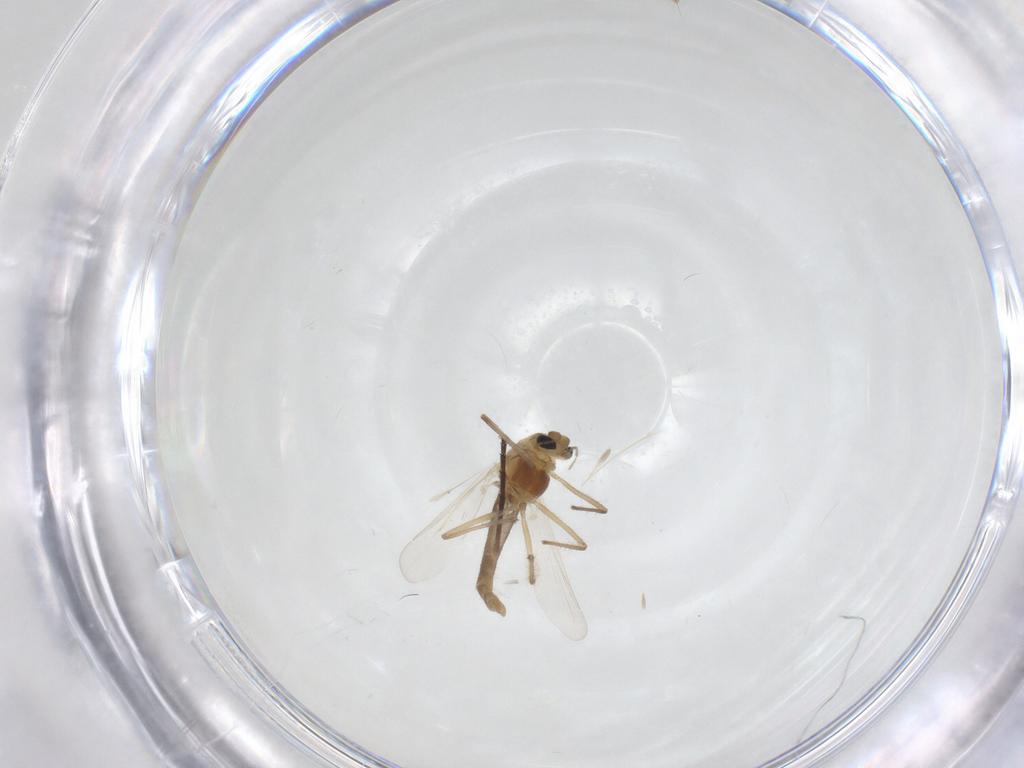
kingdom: Animalia
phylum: Arthropoda
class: Insecta
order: Diptera
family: Chironomidae
